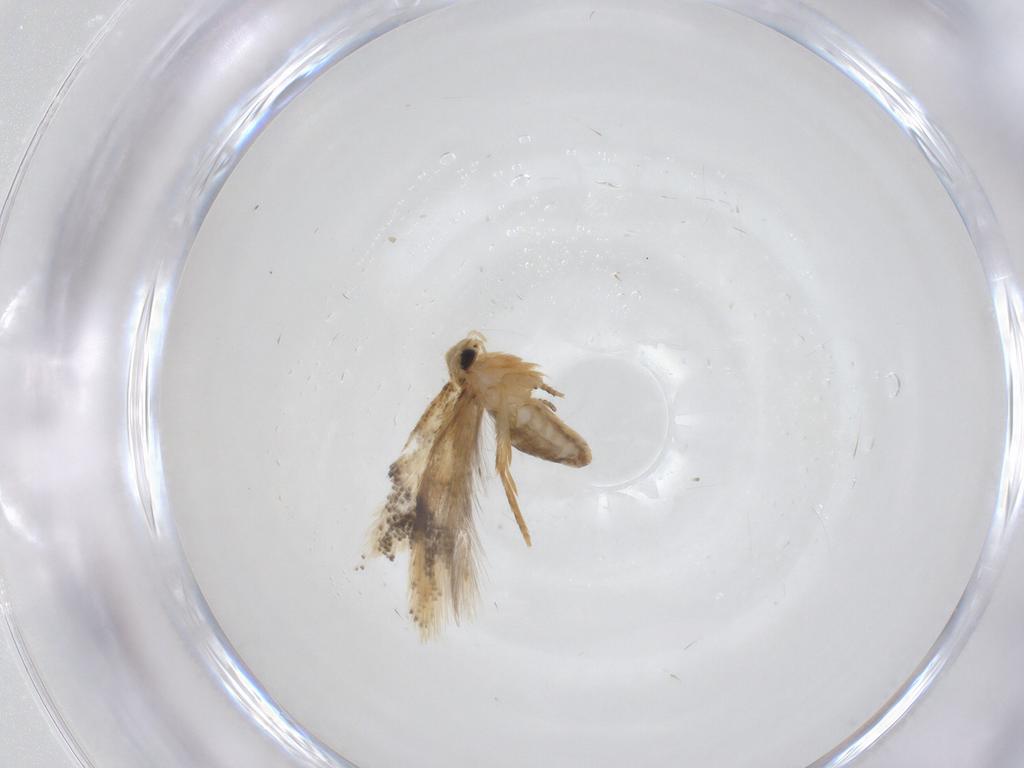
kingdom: Animalia
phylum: Arthropoda
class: Insecta
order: Lepidoptera
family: Nepticulidae
